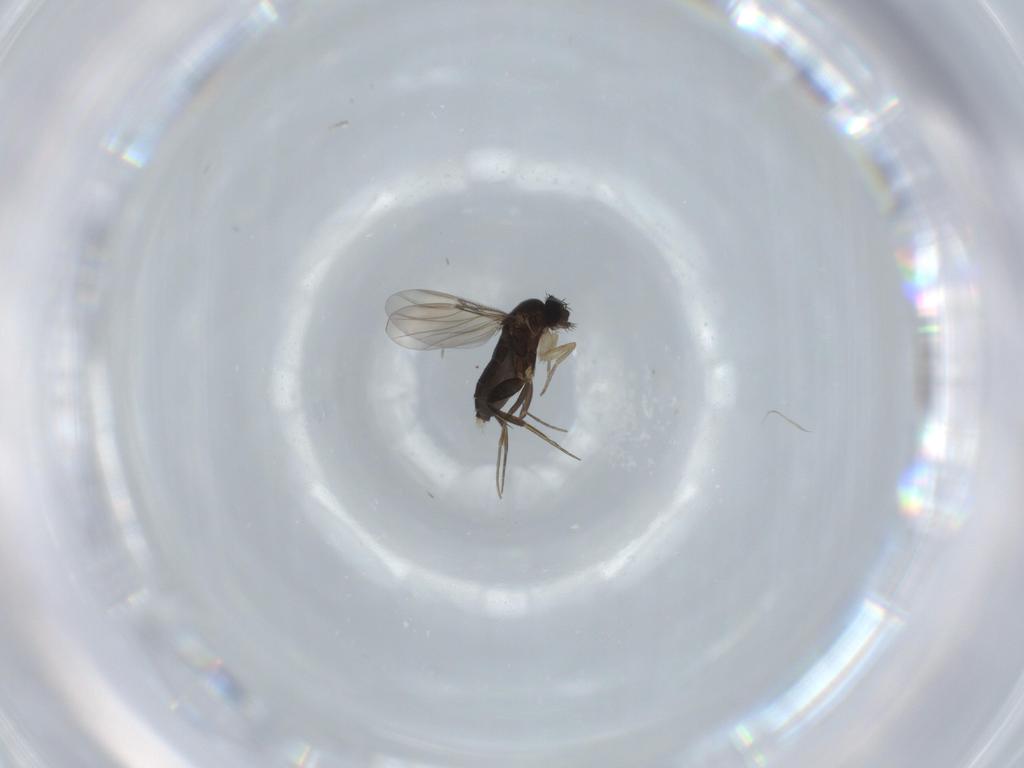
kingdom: Animalia
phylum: Arthropoda
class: Insecta
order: Diptera
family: Phoridae
